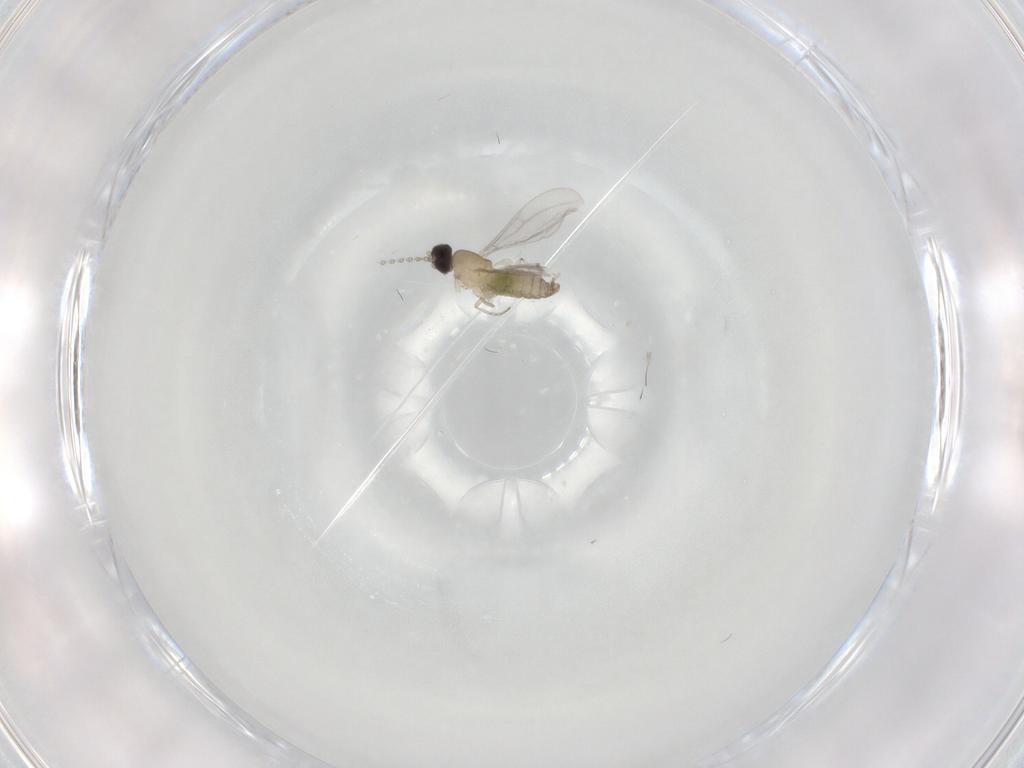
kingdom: Animalia
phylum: Arthropoda
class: Insecta
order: Diptera
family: Cecidomyiidae
